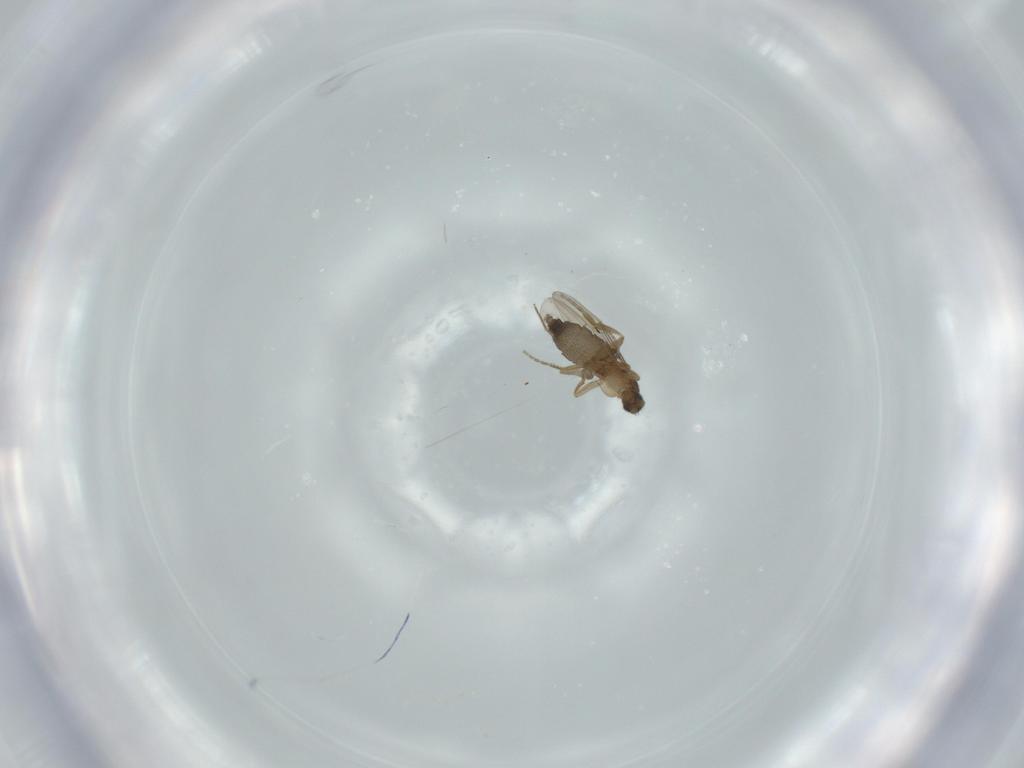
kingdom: Animalia
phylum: Arthropoda
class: Insecta
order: Diptera
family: Phoridae
